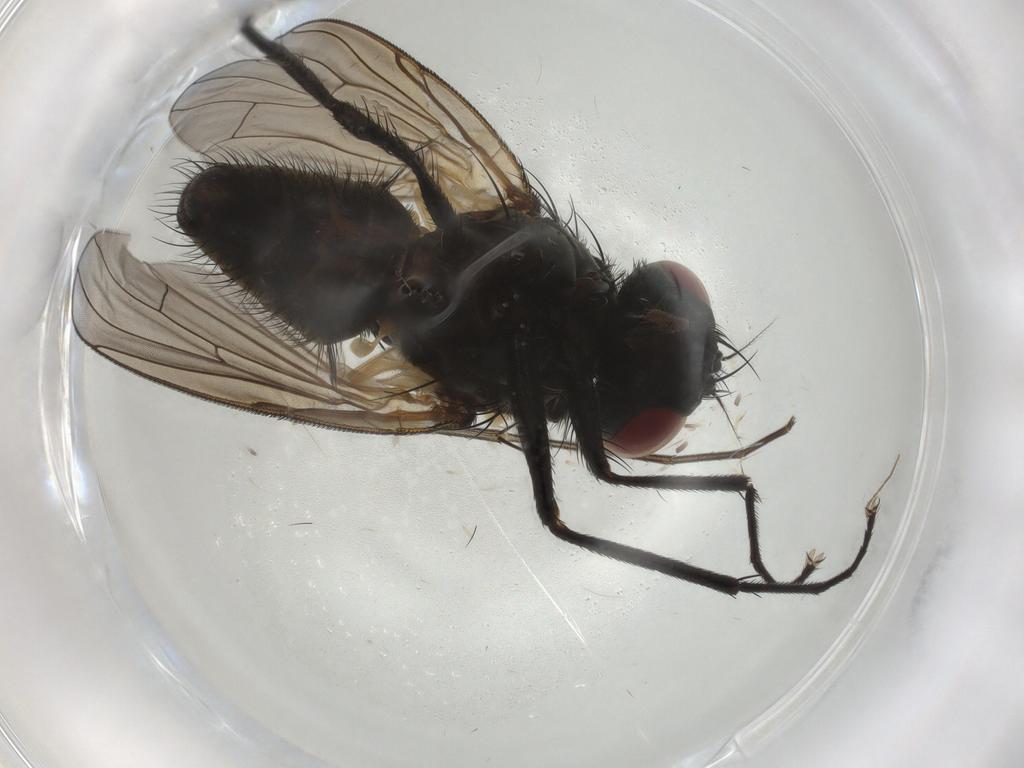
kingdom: Animalia
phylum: Arthropoda
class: Insecta
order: Diptera
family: Muscidae
